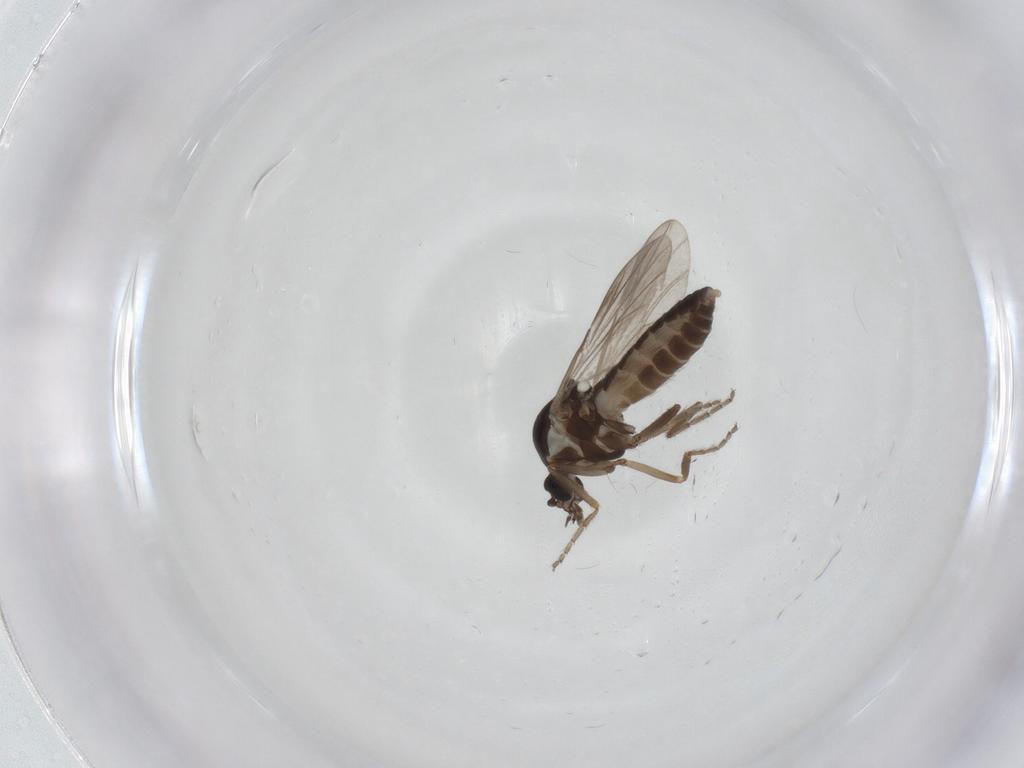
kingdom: Animalia
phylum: Arthropoda
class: Insecta
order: Diptera
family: Ceratopogonidae
